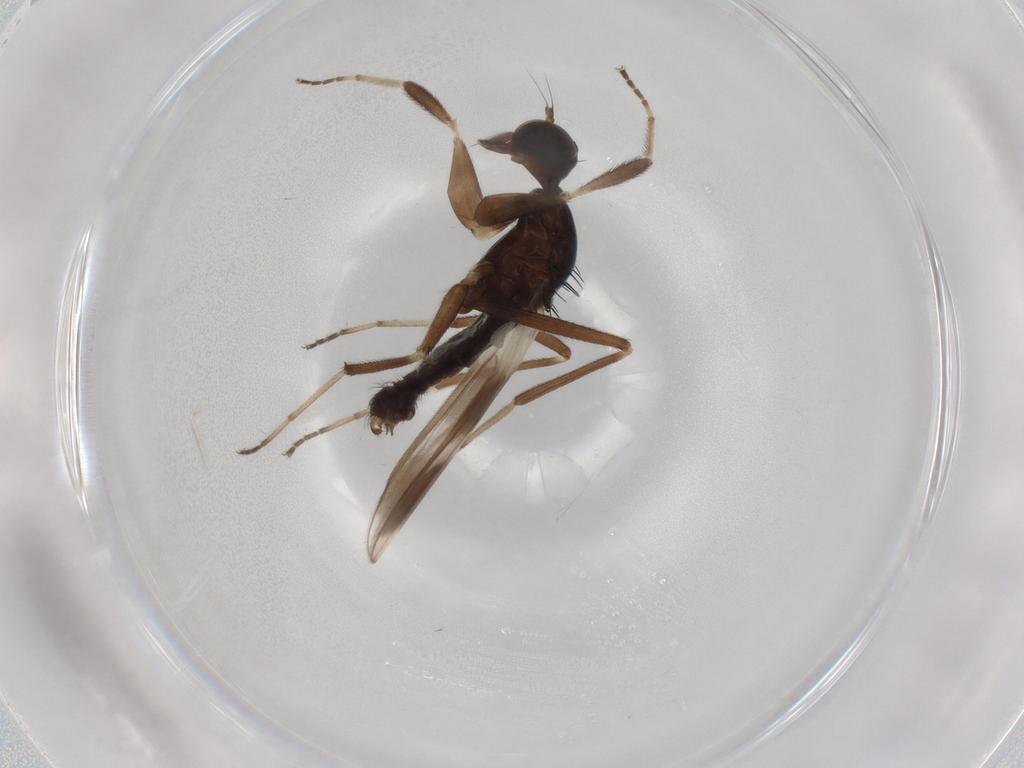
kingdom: Animalia
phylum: Arthropoda
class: Insecta
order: Diptera
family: Hybotidae
